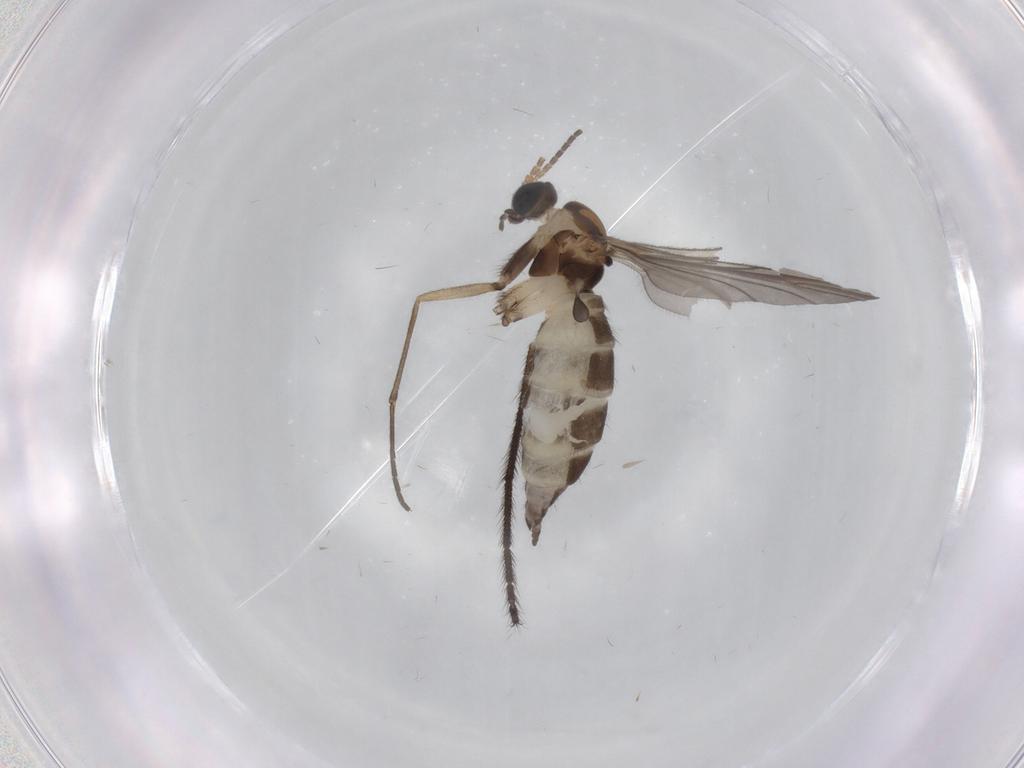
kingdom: Animalia
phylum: Arthropoda
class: Insecta
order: Diptera
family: Sciaridae
